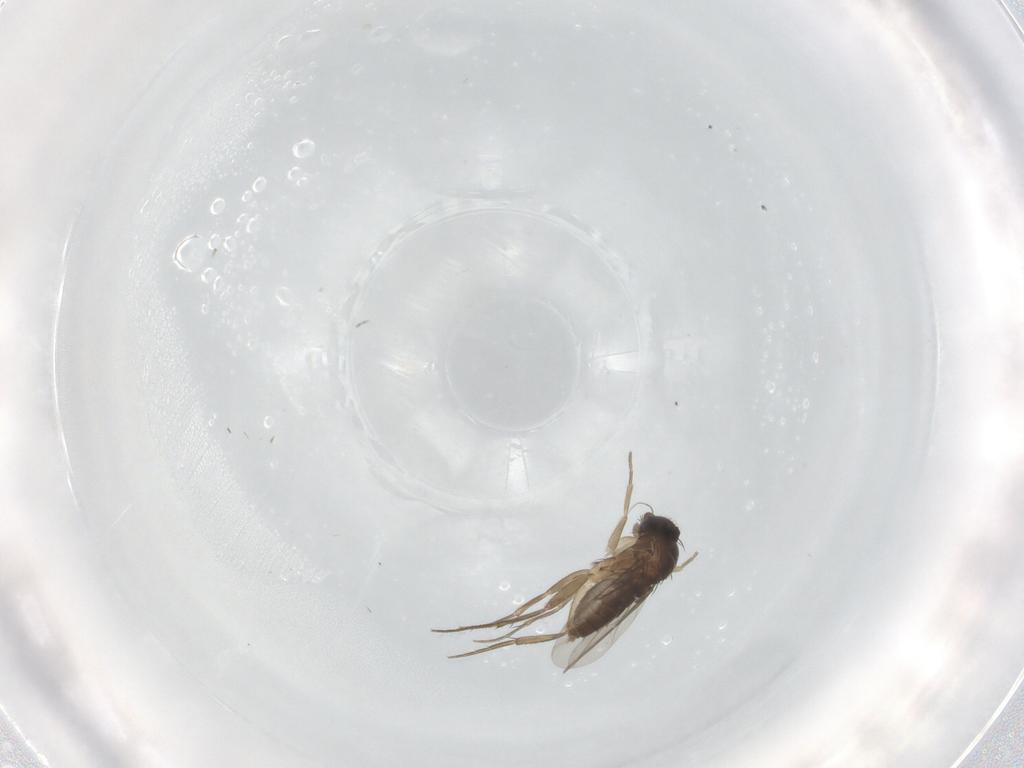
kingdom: Animalia
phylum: Arthropoda
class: Insecta
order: Diptera
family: Phoridae
